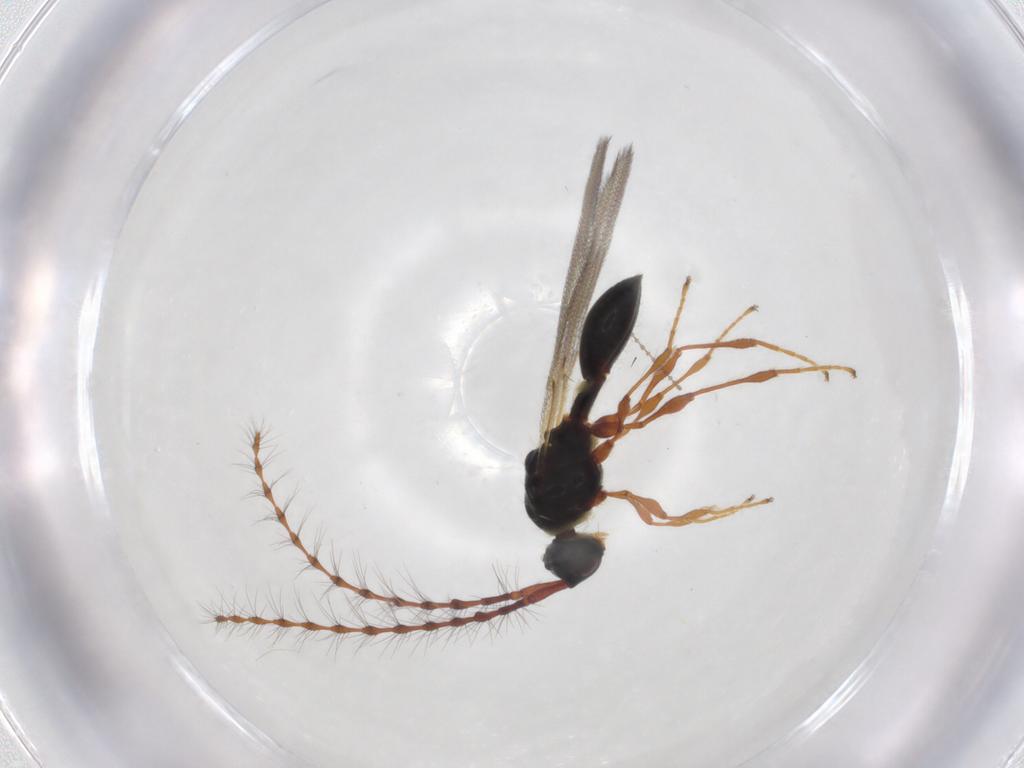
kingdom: Animalia
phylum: Arthropoda
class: Insecta
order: Hymenoptera
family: Diapriidae
